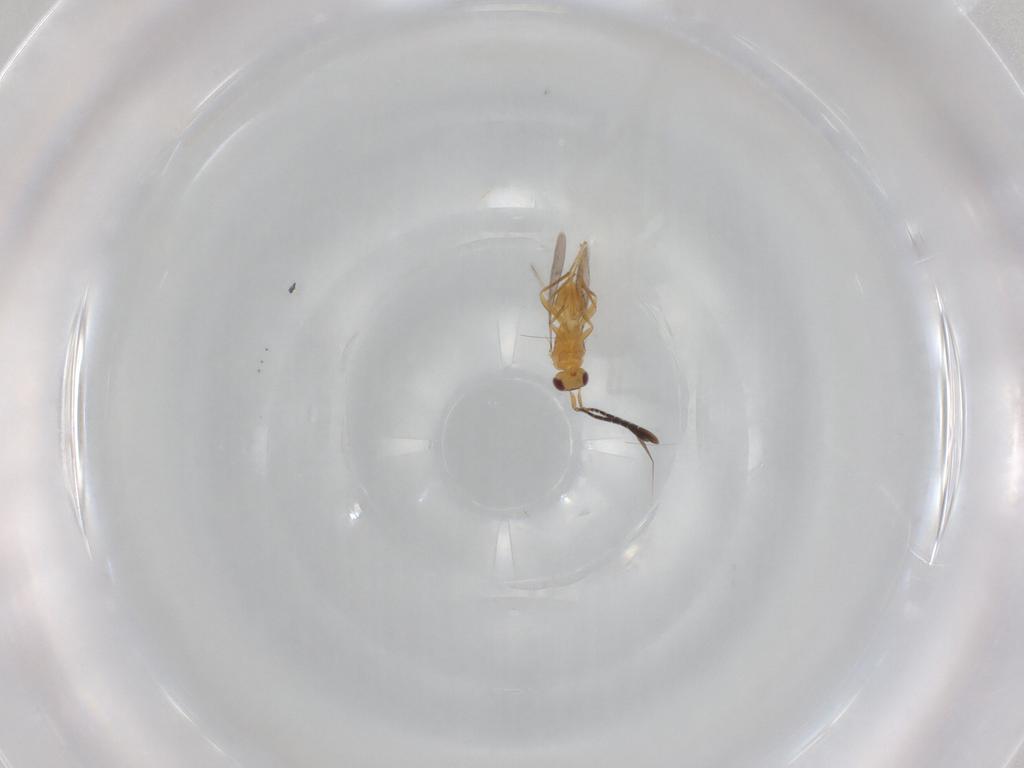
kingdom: Animalia
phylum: Arthropoda
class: Insecta
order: Hymenoptera
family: Mymaridae
